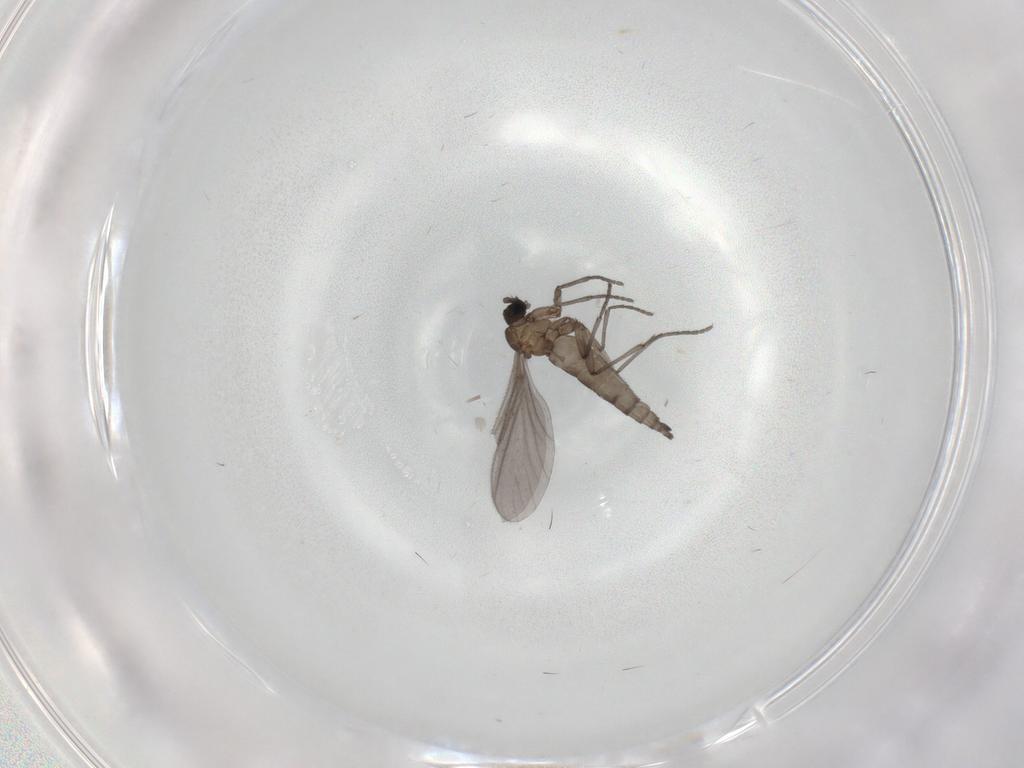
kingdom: Animalia
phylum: Arthropoda
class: Insecta
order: Diptera
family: Sciaridae
